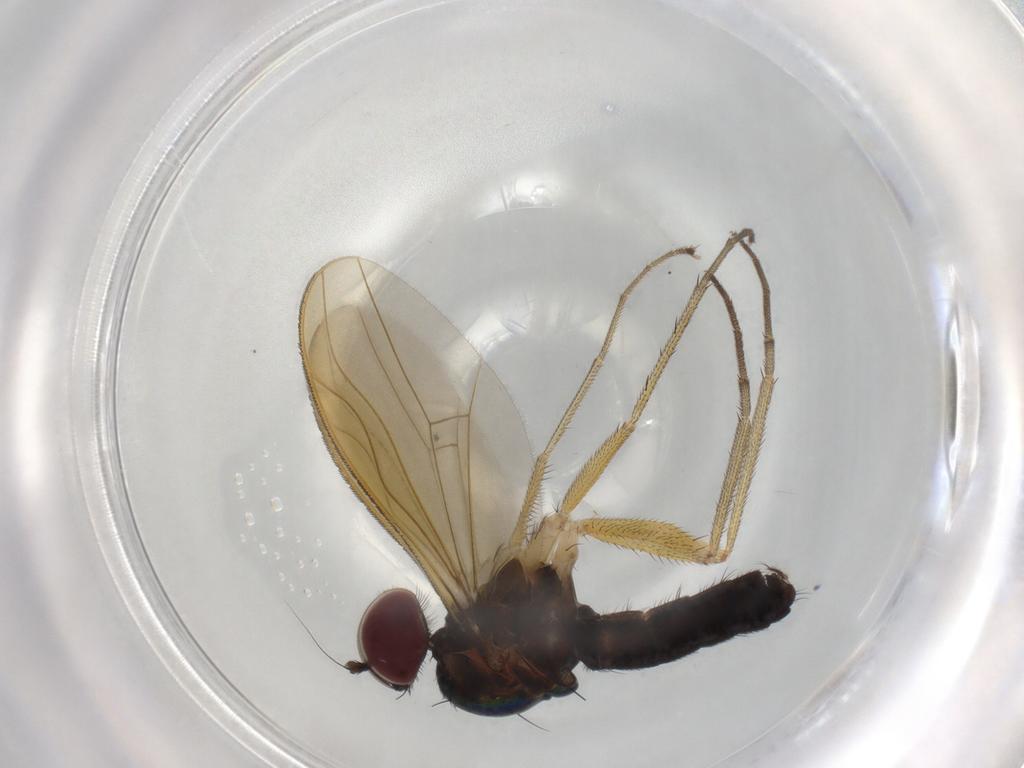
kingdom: Animalia
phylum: Arthropoda
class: Insecta
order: Diptera
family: Dolichopodidae
